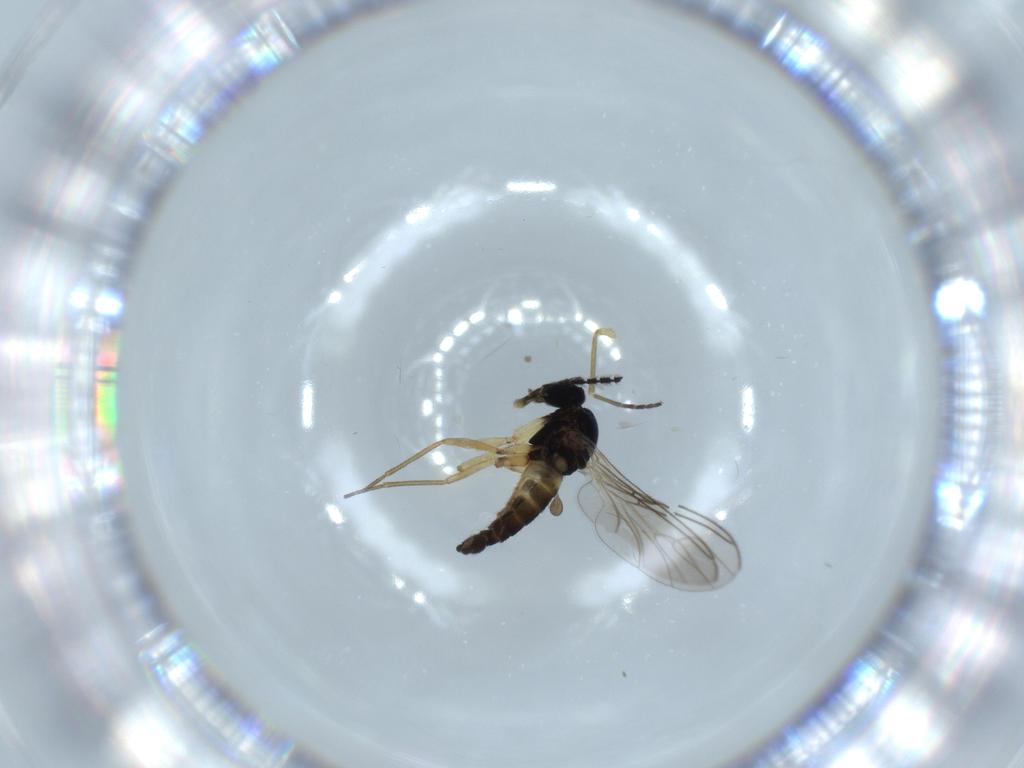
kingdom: Animalia
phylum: Arthropoda
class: Insecta
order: Diptera
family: Sciaridae
